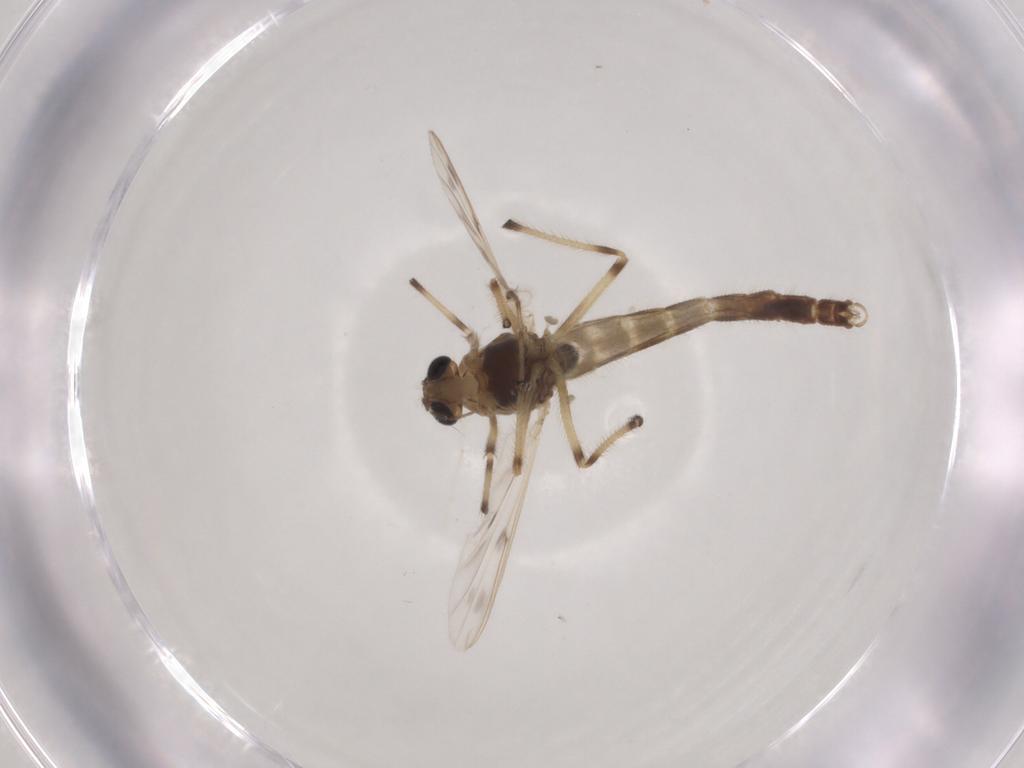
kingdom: Animalia
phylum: Arthropoda
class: Insecta
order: Diptera
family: Chironomidae
